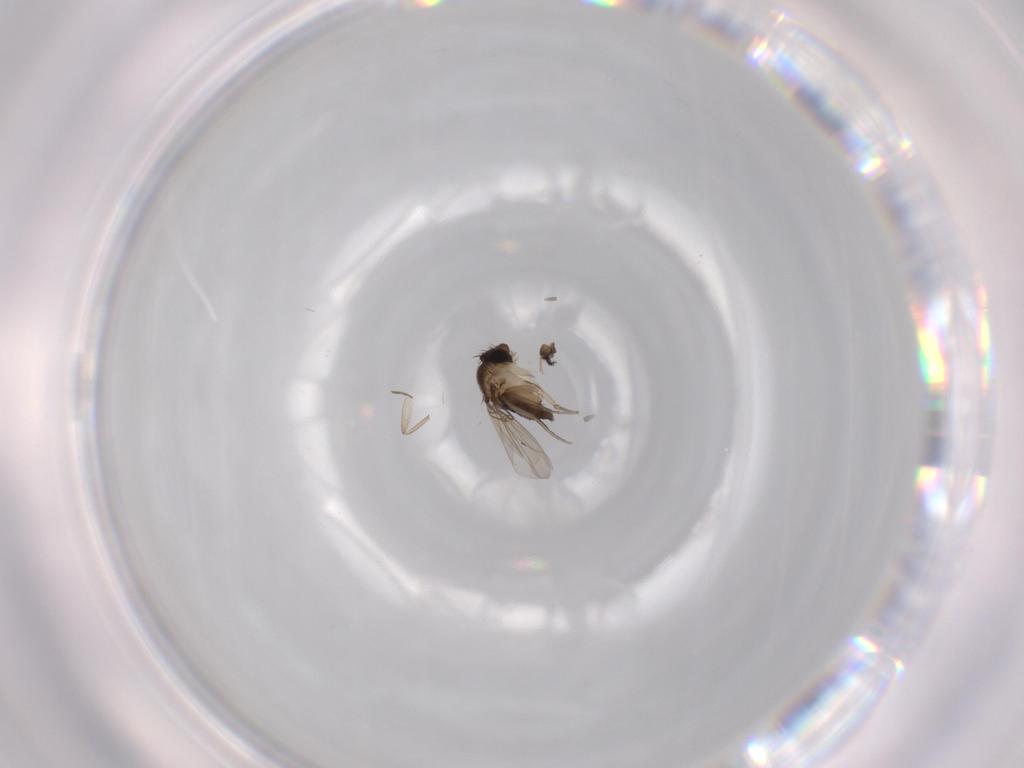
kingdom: Animalia
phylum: Arthropoda
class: Insecta
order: Diptera
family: Phoridae
